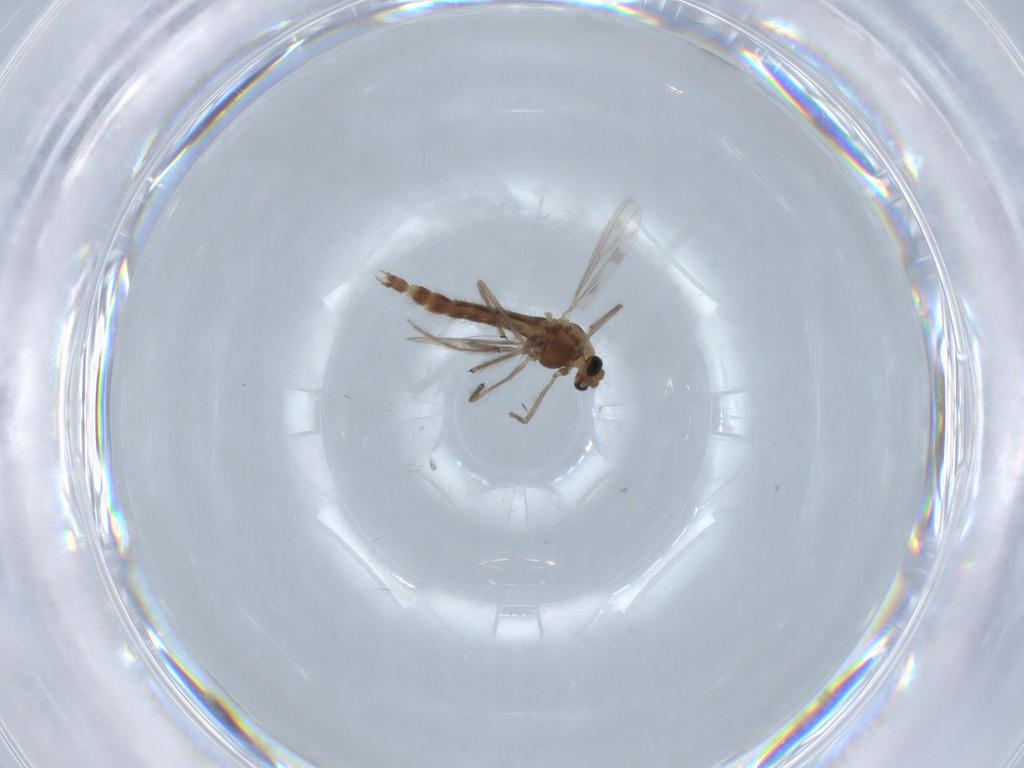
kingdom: Animalia
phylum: Arthropoda
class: Insecta
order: Diptera
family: Chironomidae
